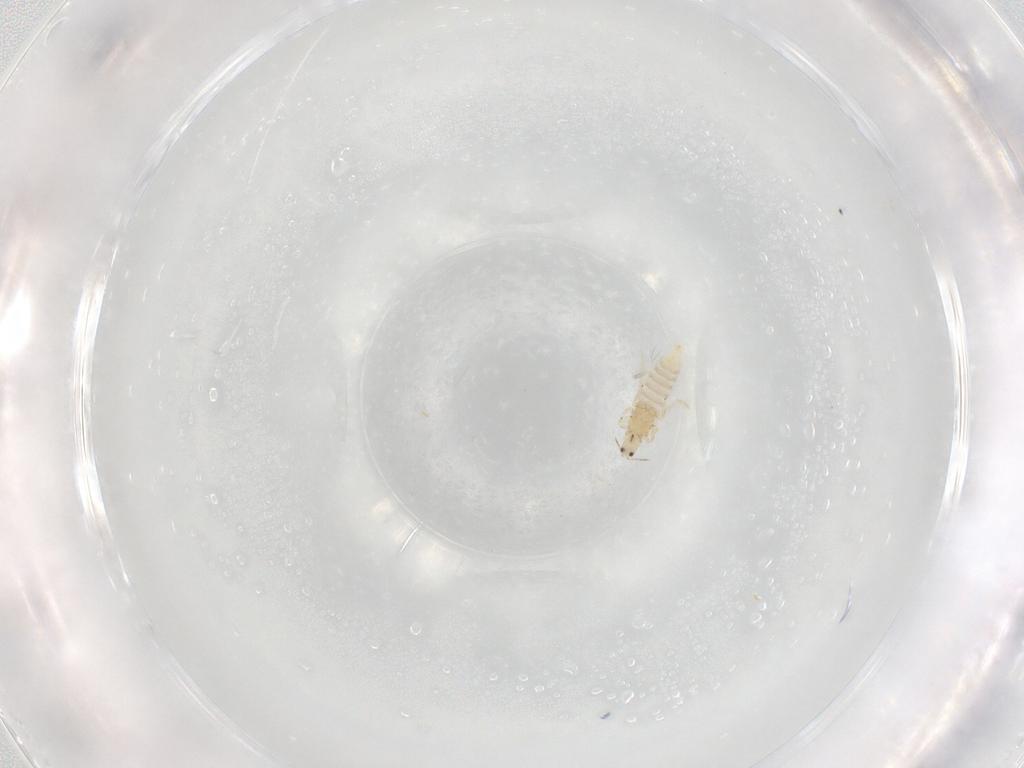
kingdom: Animalia
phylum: Arthropoda
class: Insecta
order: Thysanoptera
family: Thripidae
